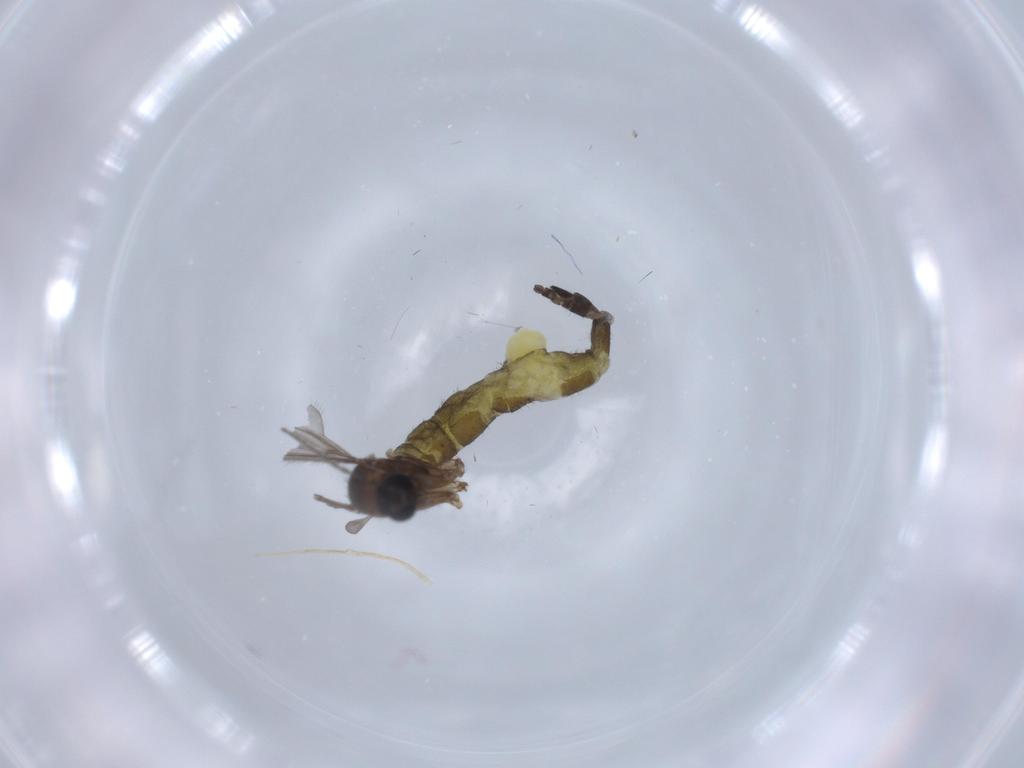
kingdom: Animalia
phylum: Arthropoda
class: Insecta
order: Diptera
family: Sciaridae
